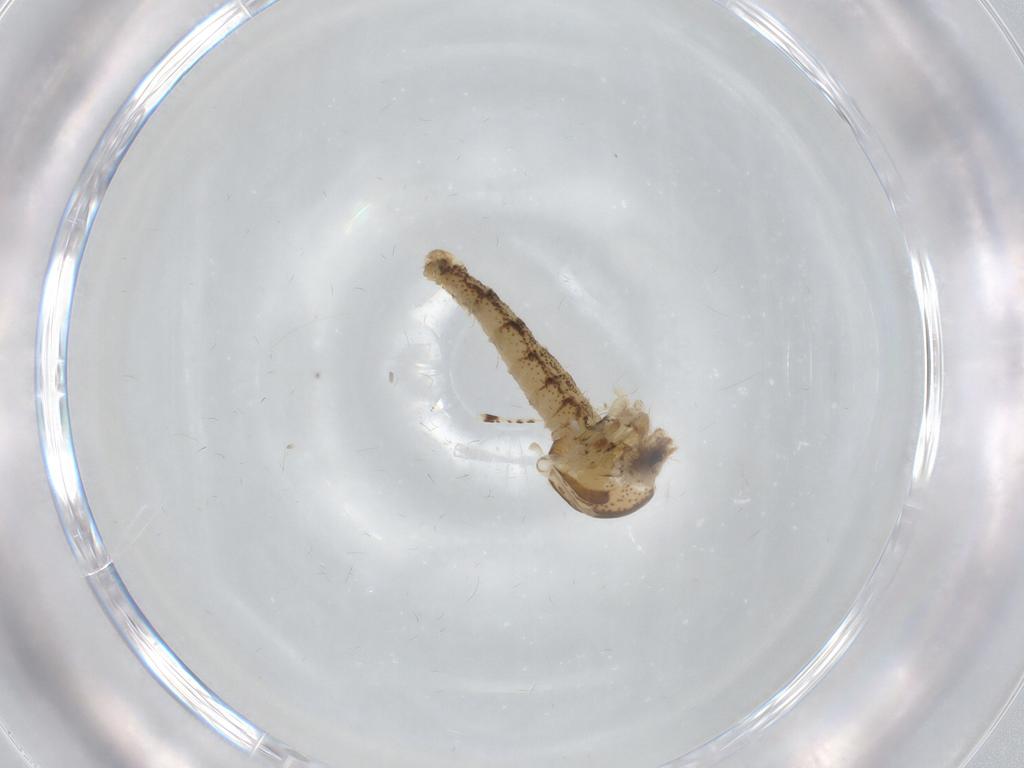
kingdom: Animalia
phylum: Arthropoda
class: Insecta
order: Diptera
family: Chaoboridae
